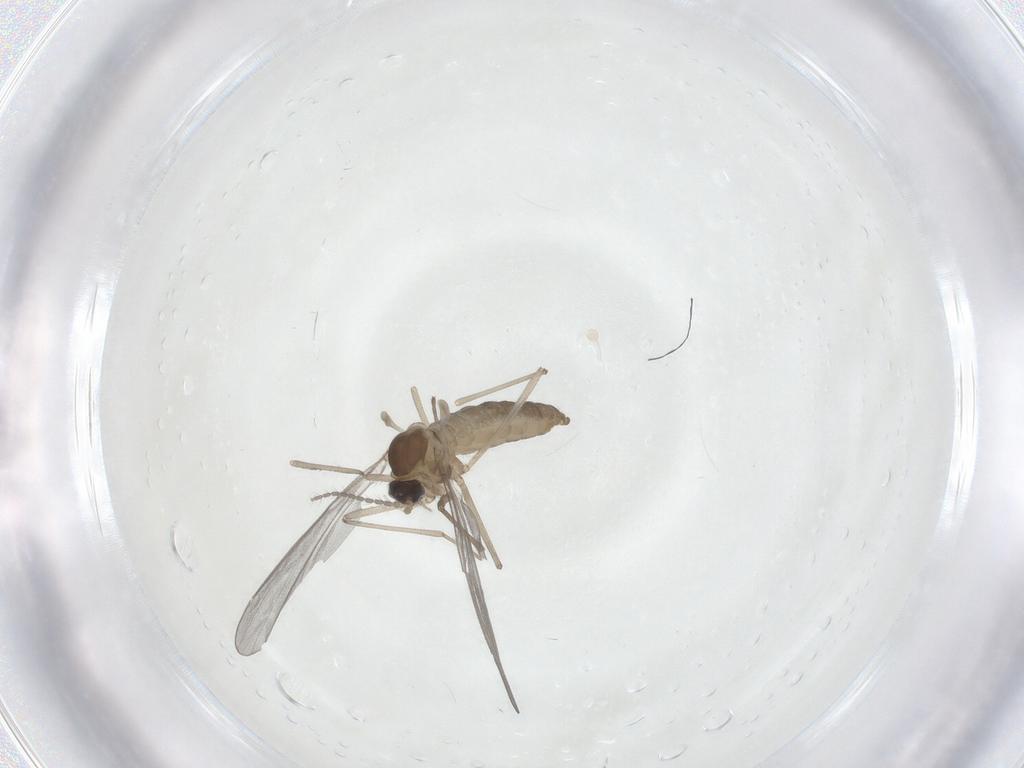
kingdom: Animalia
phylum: Arthropoda
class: Insecta
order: Diptera
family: Cecidomyiidae
